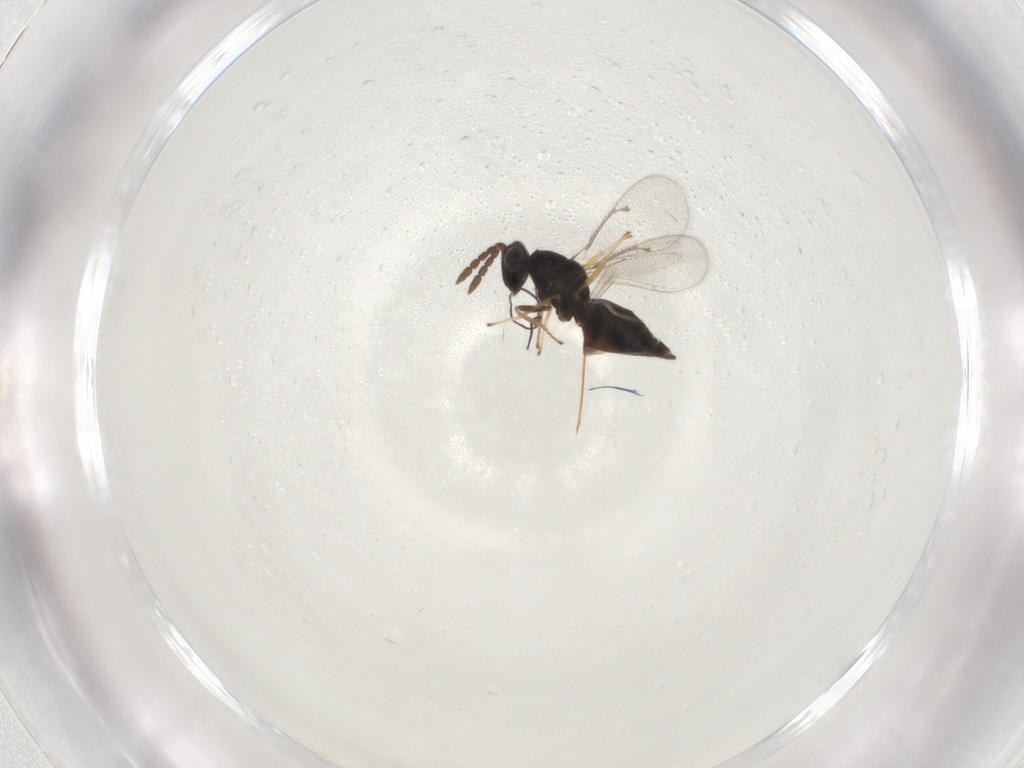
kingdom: Animalia
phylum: Arthropoda
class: Insecta
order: Hymenoptera
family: Eulophidae
